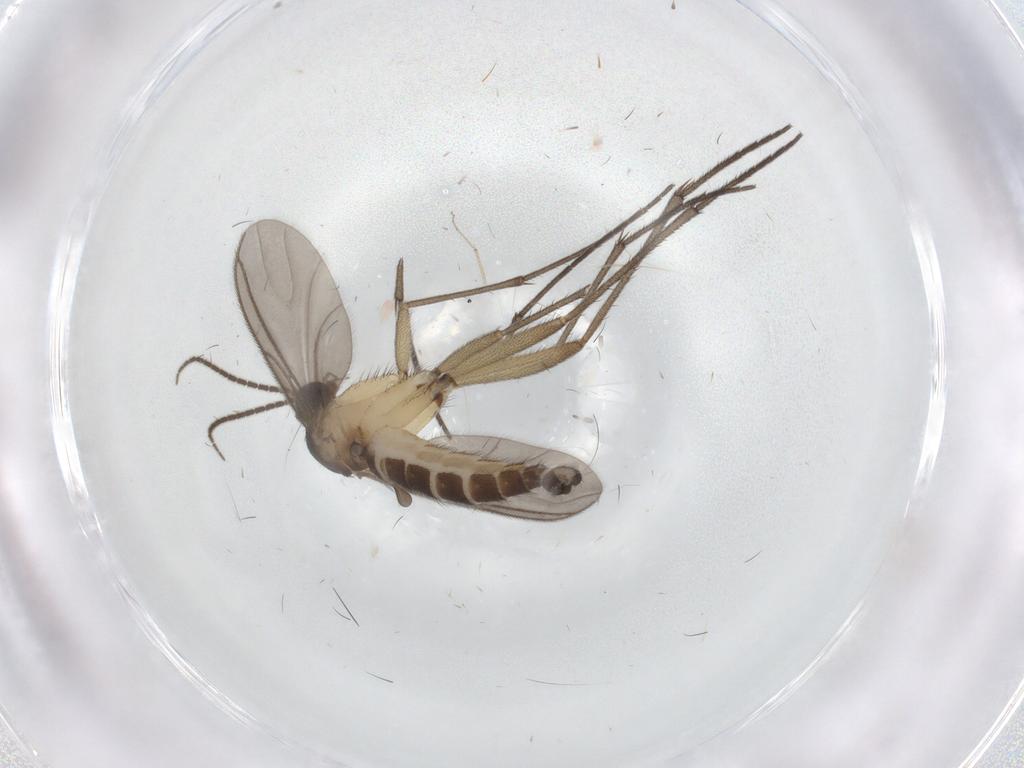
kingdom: Animalia
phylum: Arthropoda
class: Insecta
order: Diptera
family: Sciaridae
